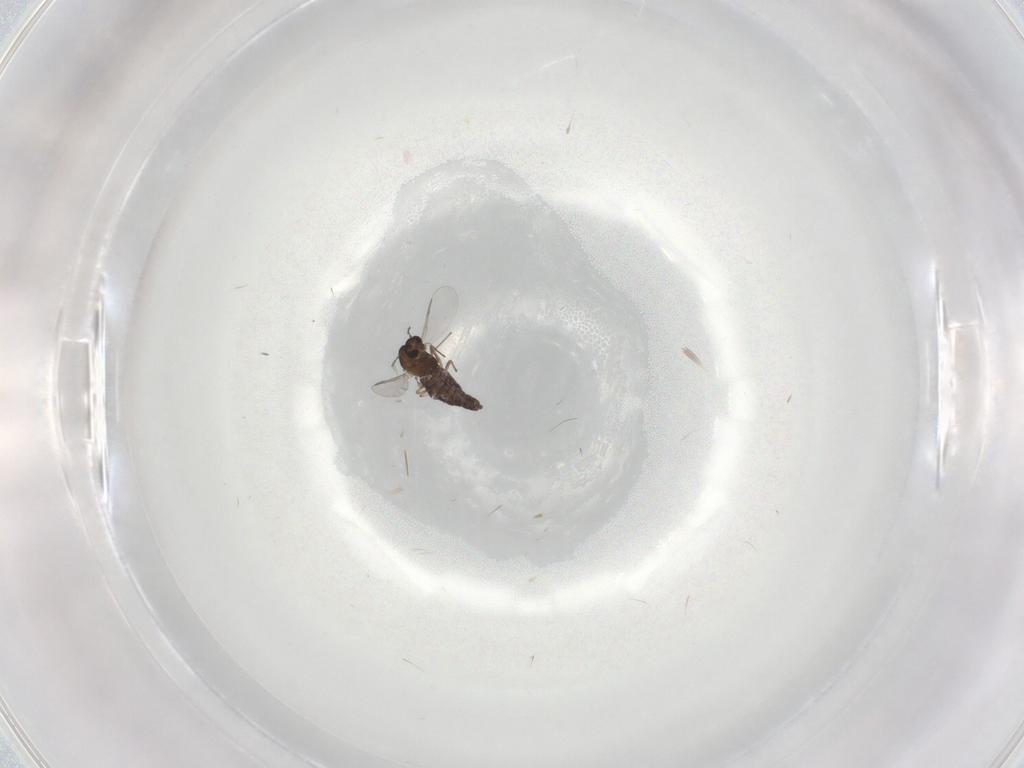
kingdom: Animalia
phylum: Arthropoda
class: Insecta
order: Diptera
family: Chironomidae
